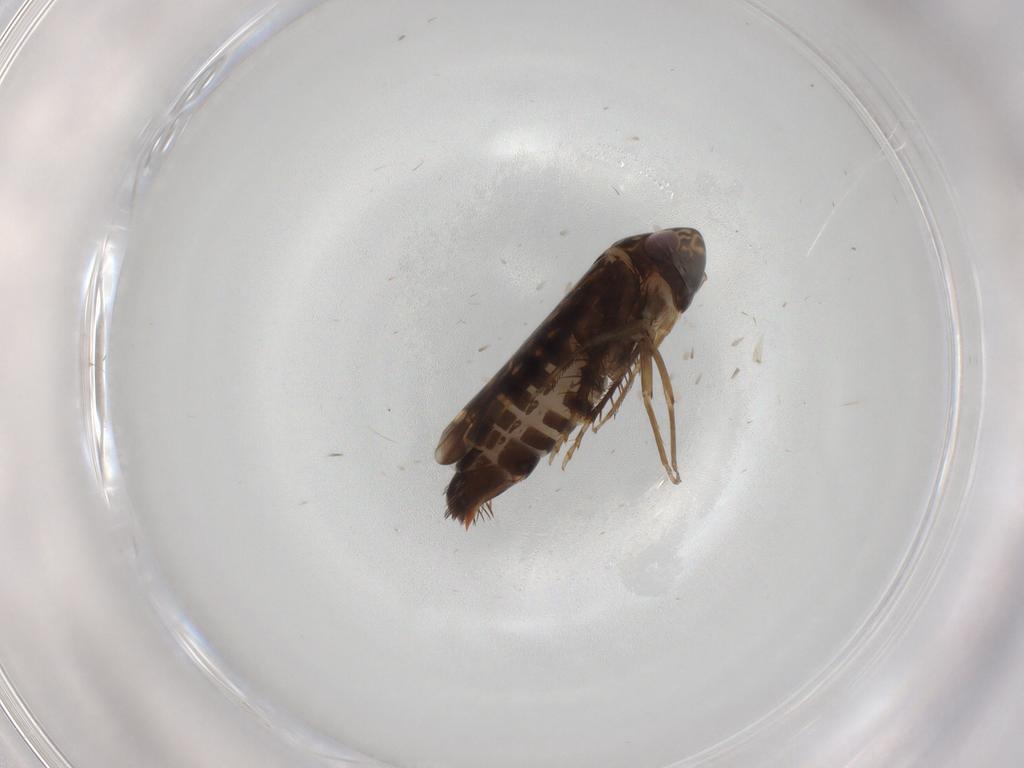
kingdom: Animalia
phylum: Arthropoda
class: Insecta
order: Hemiptera
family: Cicadellidae
